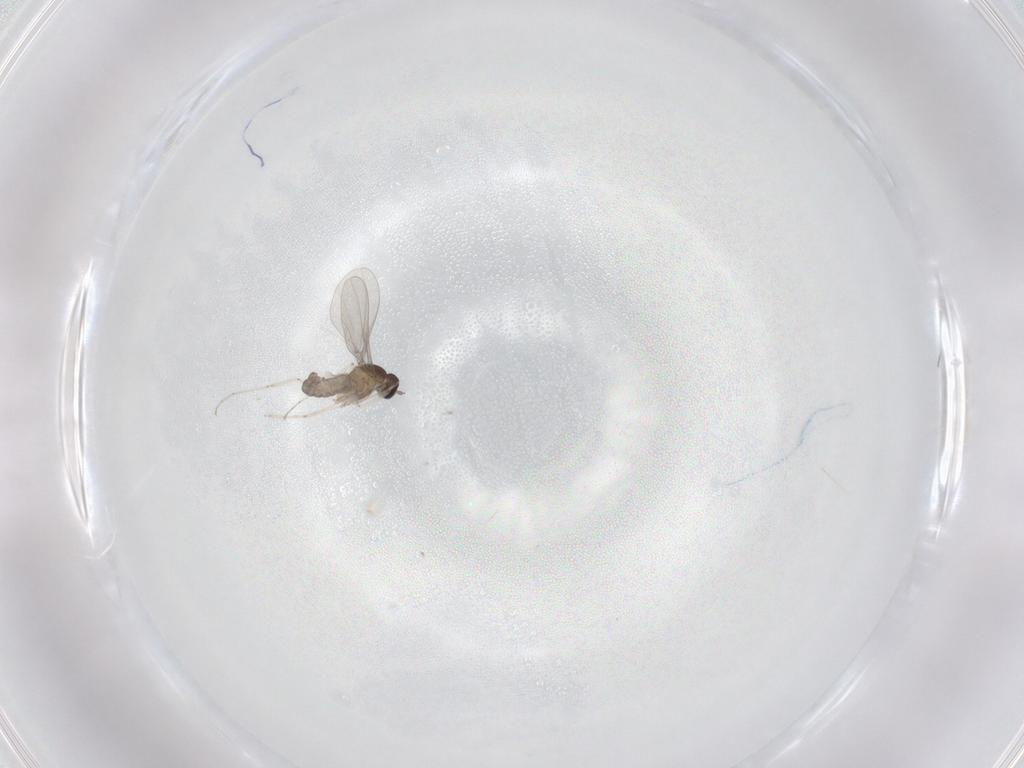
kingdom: Animalia
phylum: Arthropoda
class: Insecta
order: Diptera
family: Cecidomyiidae
